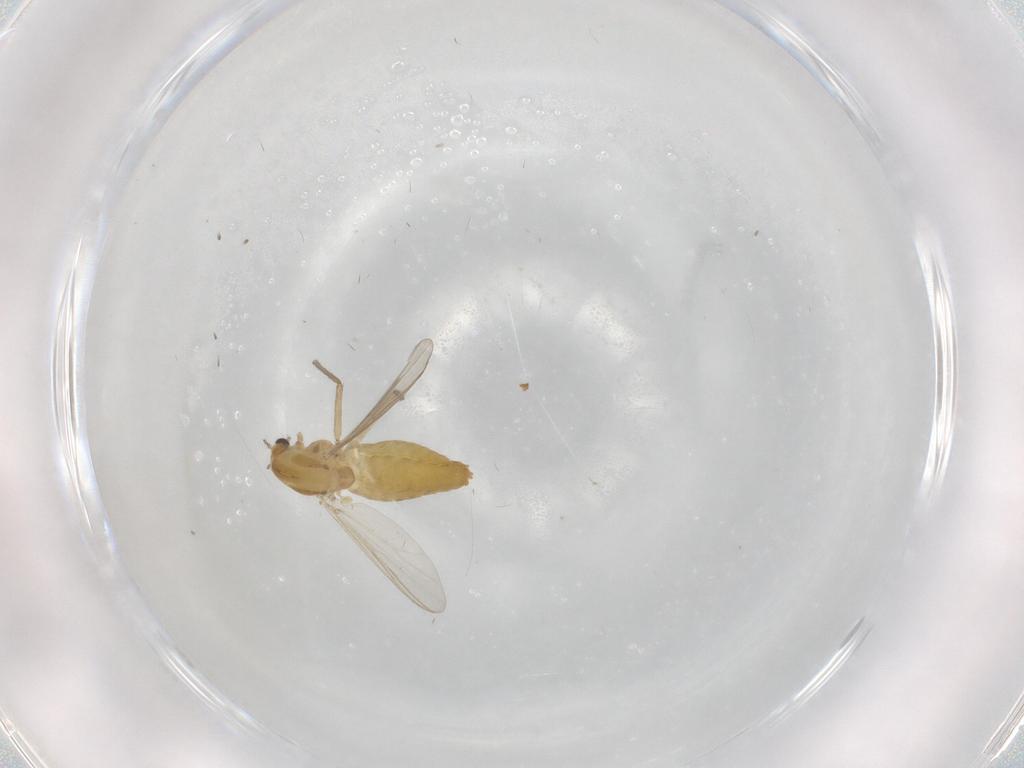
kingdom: Animalia
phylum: Arthropoda
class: Insecta
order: Diptera
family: Chironomidae
